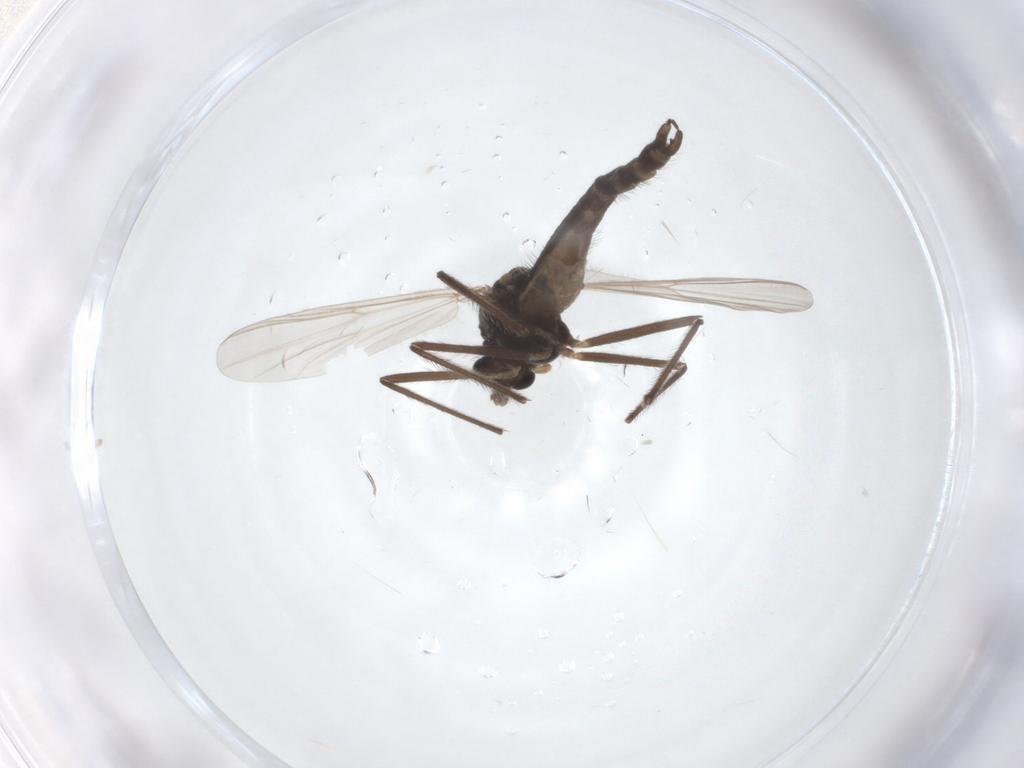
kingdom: Animalia
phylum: Arthropoda
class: Insecta
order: Diptera
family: Chironomidae
